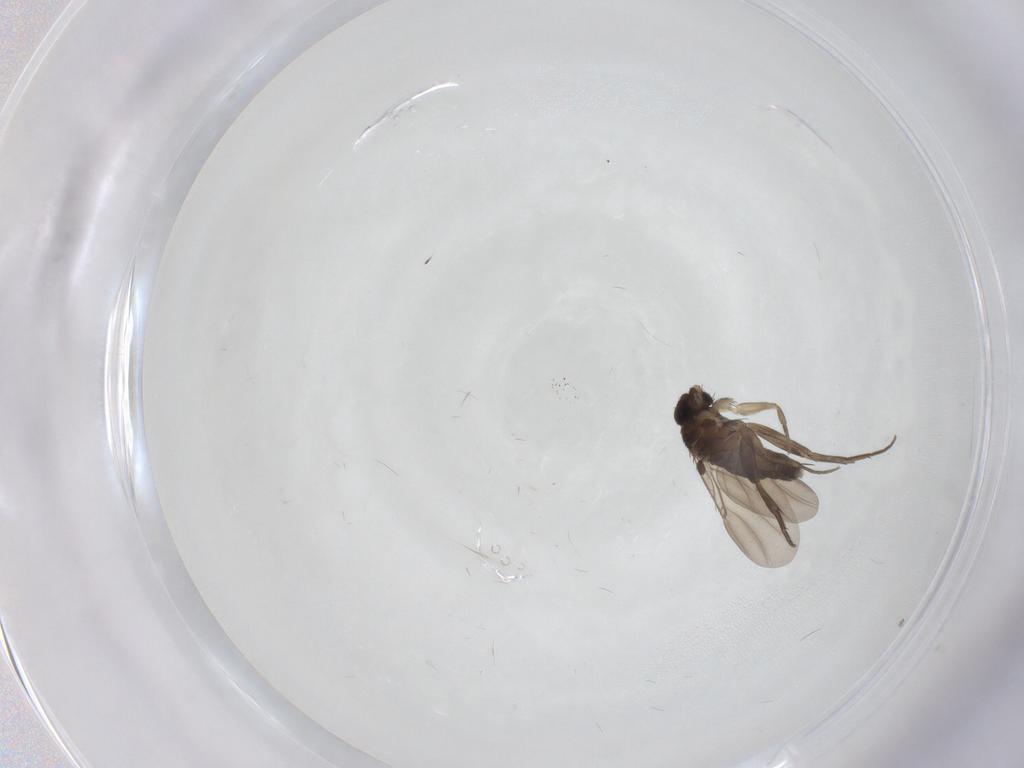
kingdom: Animalia
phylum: Arthropoda
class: Insecta
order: Diptera
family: Phoridae
